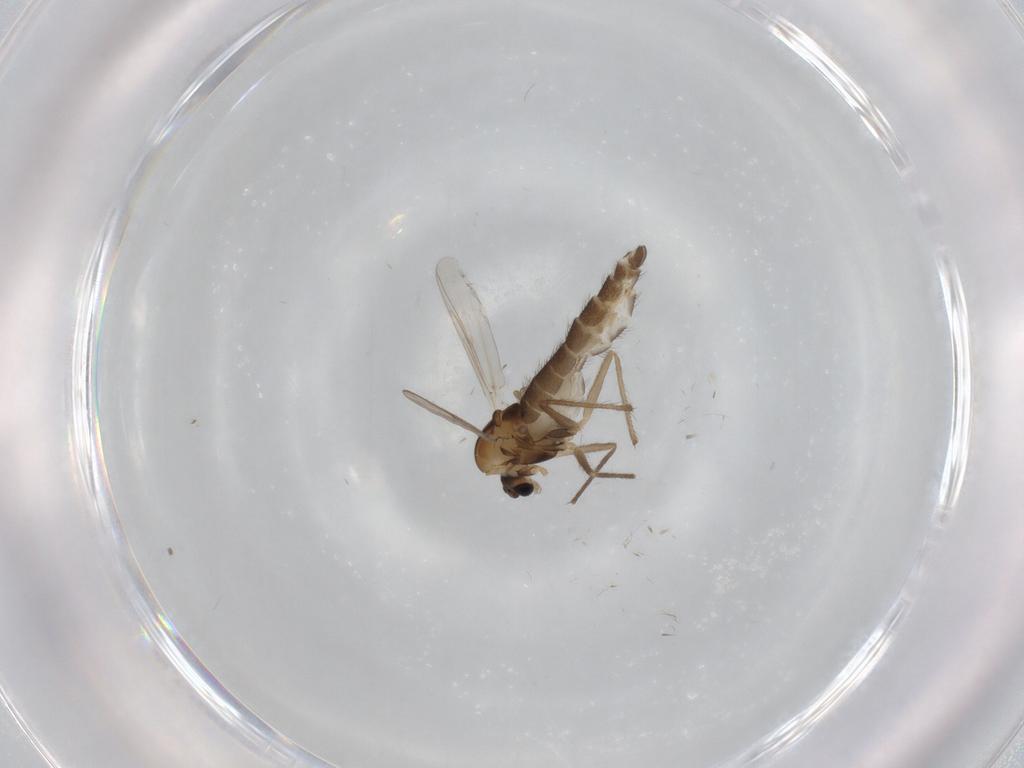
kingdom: Animalia
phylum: Arthropoda
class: Insecta
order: Diptera
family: Chironomidae
